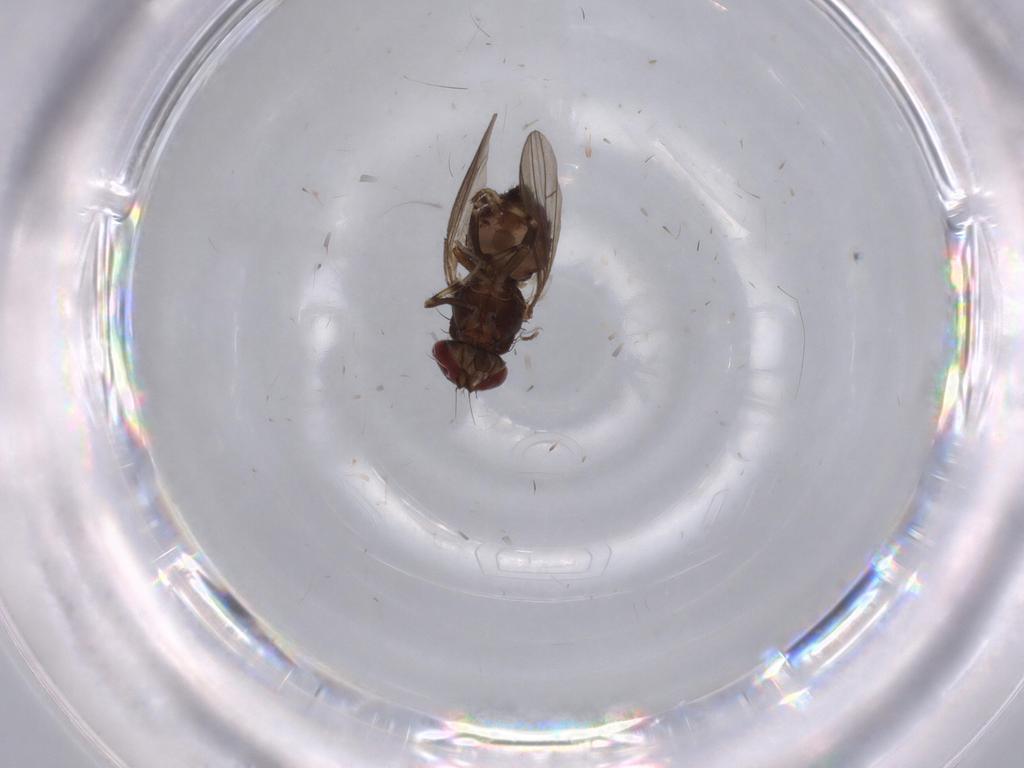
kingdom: Animalia
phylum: Arthropoda
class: Insecta
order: Diptera
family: Heleomyzidae
